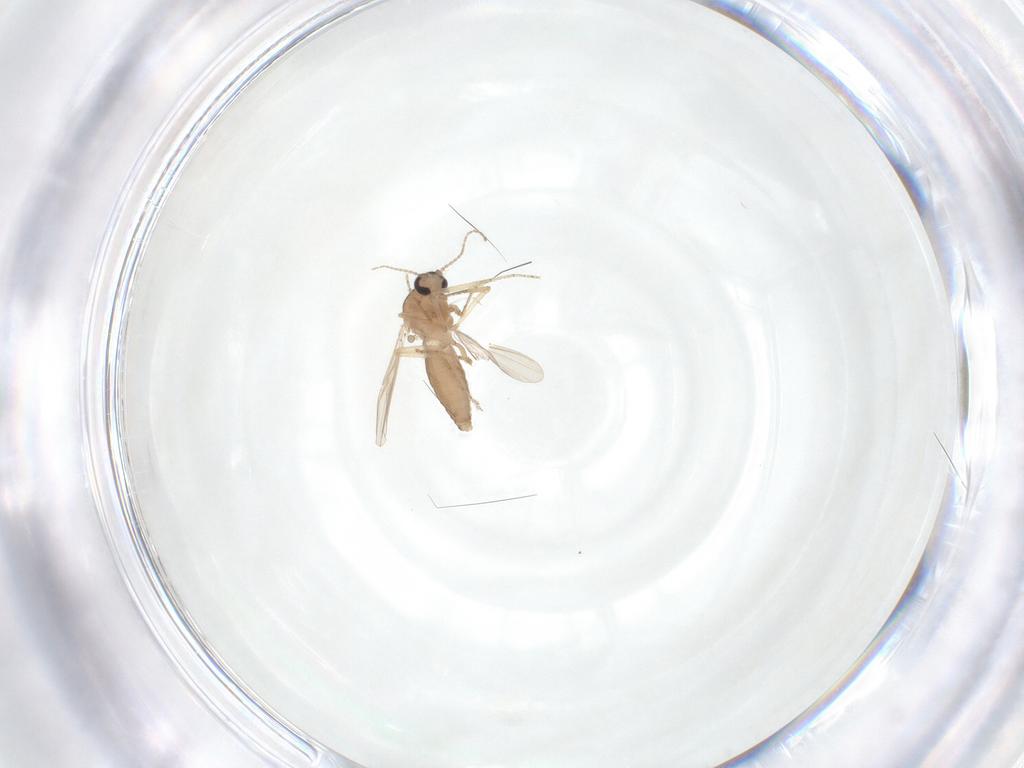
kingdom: Animalia
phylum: Arthropoda
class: Insecta
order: Diptera
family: Ceratopogonidae
